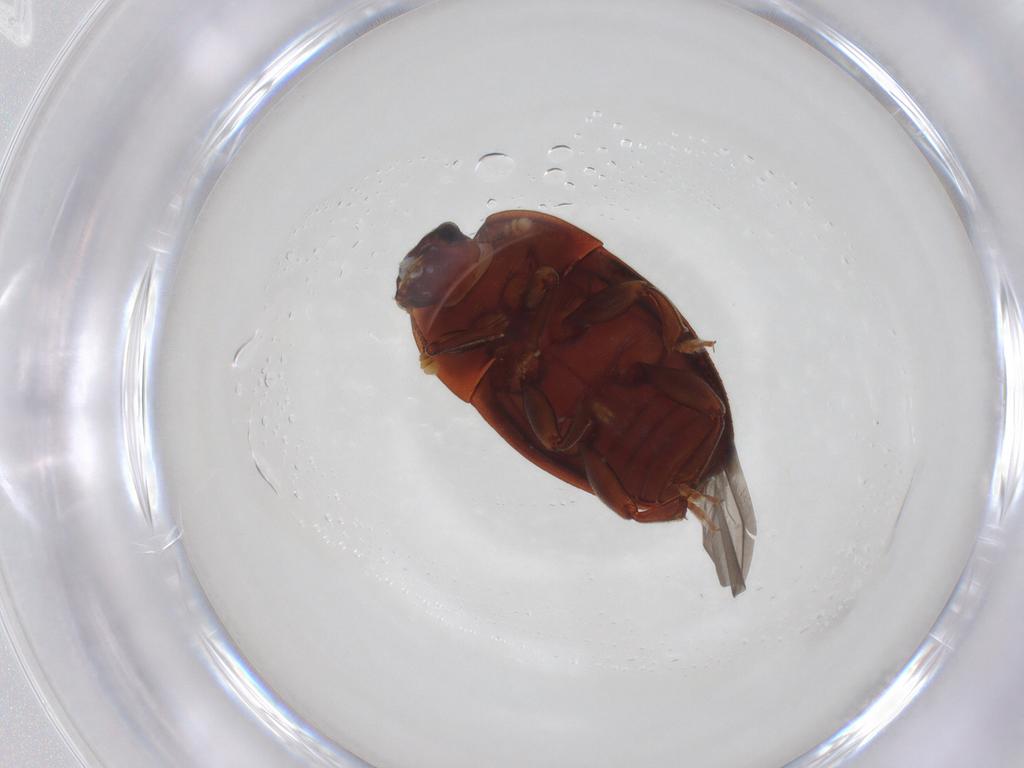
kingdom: Animalia
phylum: Arthropoda
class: Insecta
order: Coleoptera
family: Nitidulidae
